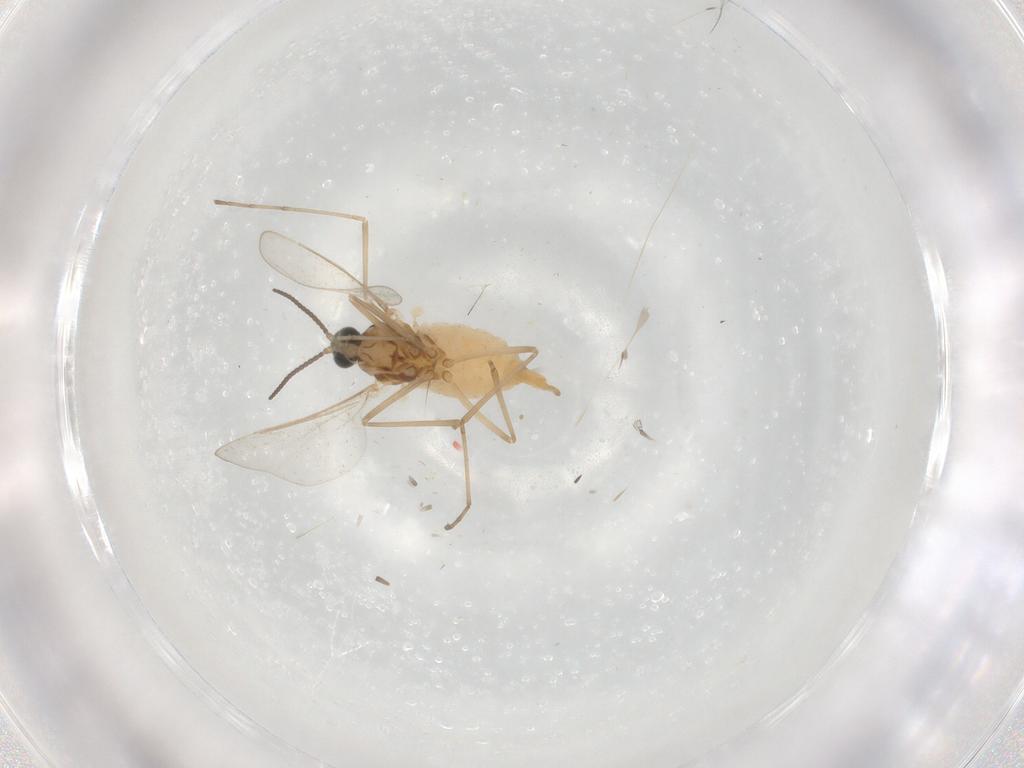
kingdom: Animalia
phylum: Arthropoda
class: Insecta
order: Diptera
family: Cecidomyiidae
